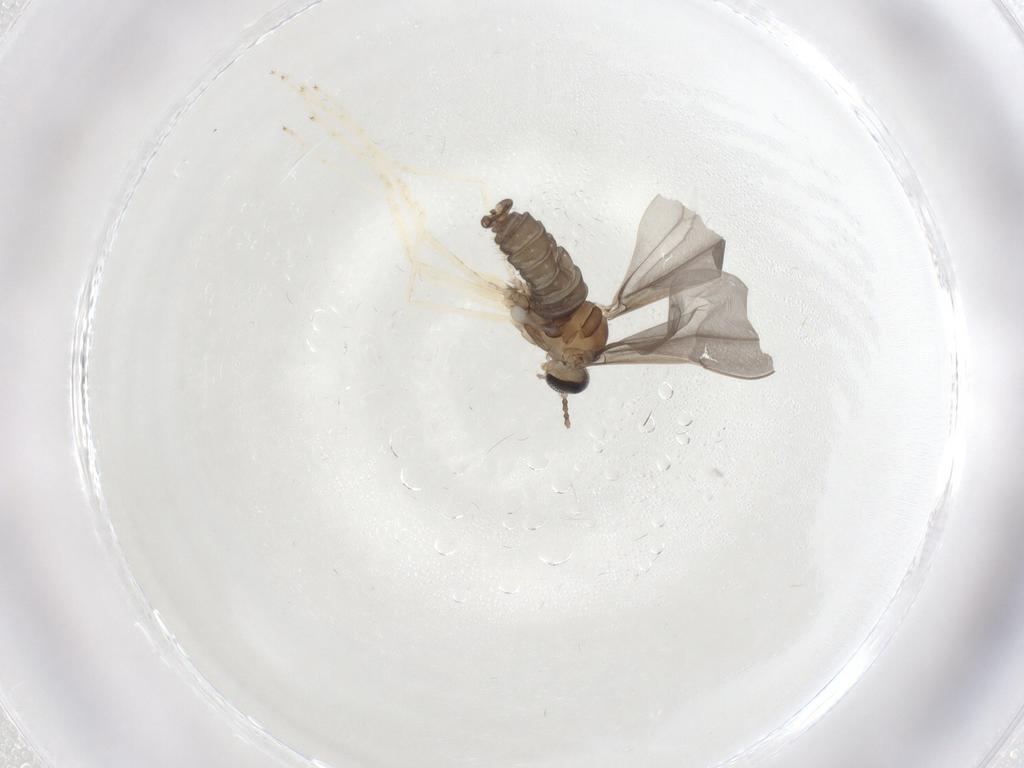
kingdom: Animalia
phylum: Arthropoda
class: Insecta
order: Diptera
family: Cecidomyiidae
